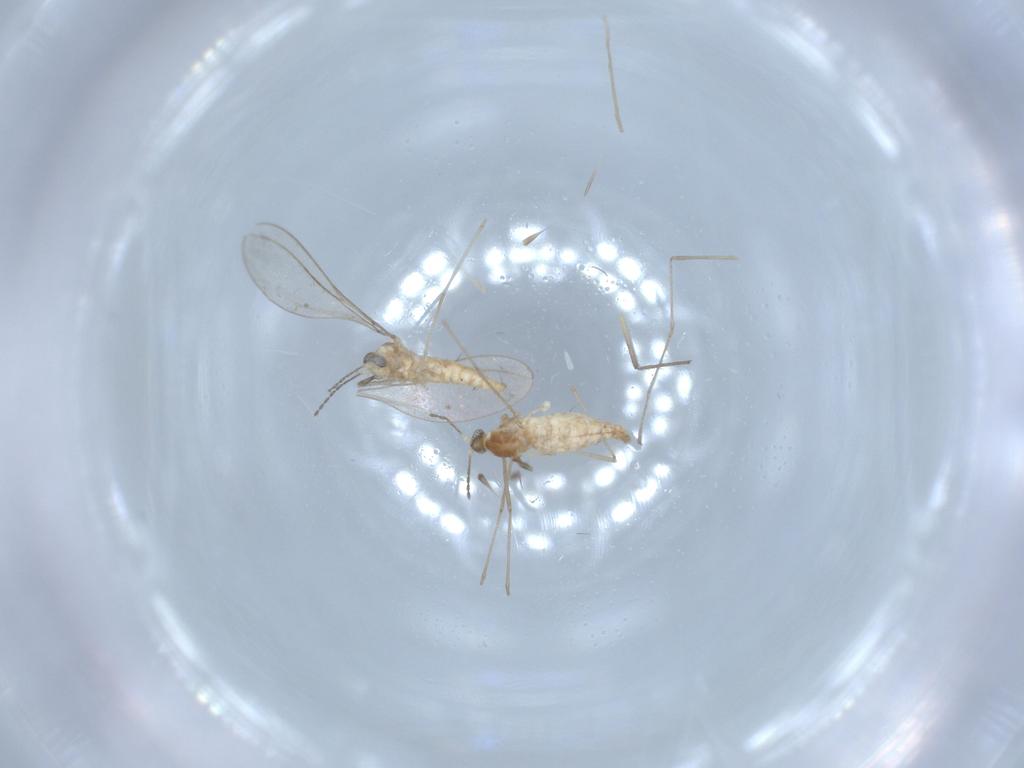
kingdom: Animalia
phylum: Arthropoda
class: Insecta
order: Diptera
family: Cecidomyiidae
